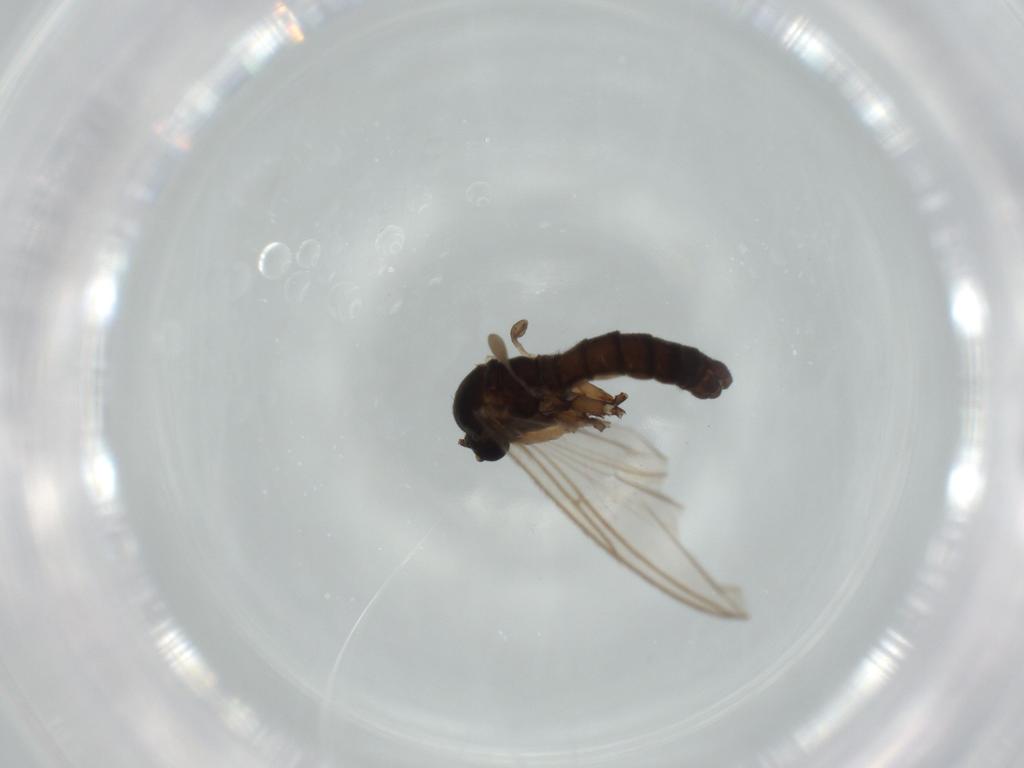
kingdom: Animalia
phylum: Arthropoda
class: Insecta
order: Diptera
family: Sciaridae
